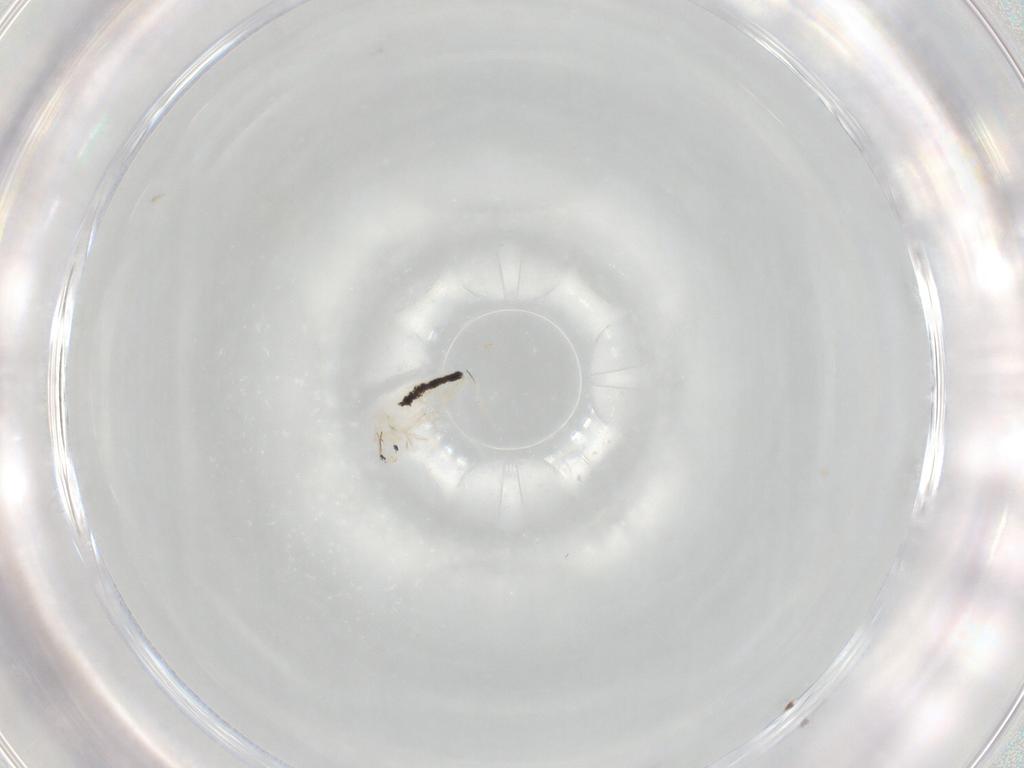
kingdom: Animalia
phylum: Arthropoda
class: Collembola
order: Entomobryomorpha
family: Entomobryidae
